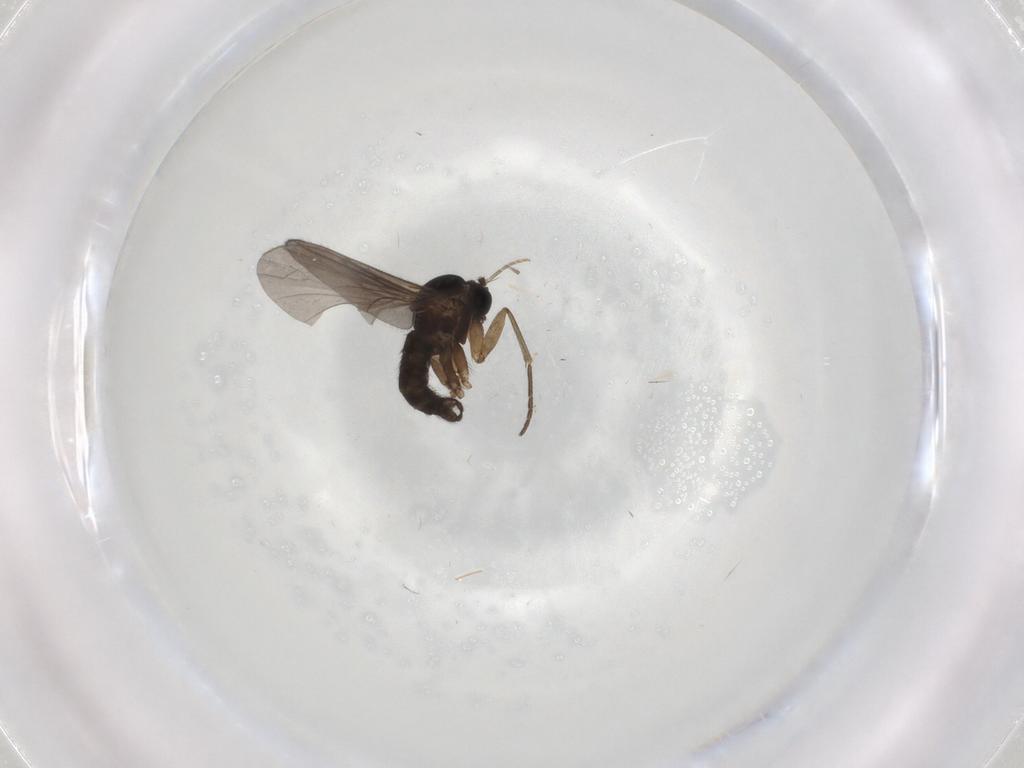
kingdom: Animalia
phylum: Arthropoda
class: Insecta
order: Diptera
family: Sciaridae
